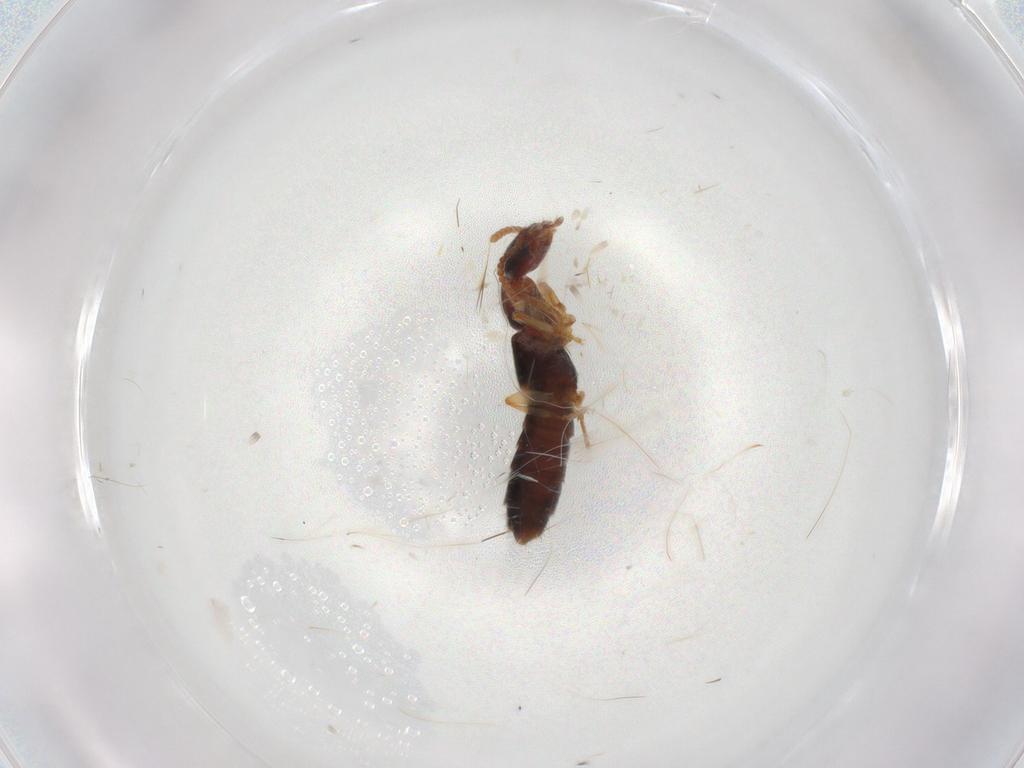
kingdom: Animalia
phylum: Arthropoda
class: Insecta
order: Coleoptera
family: Staphylinidae
